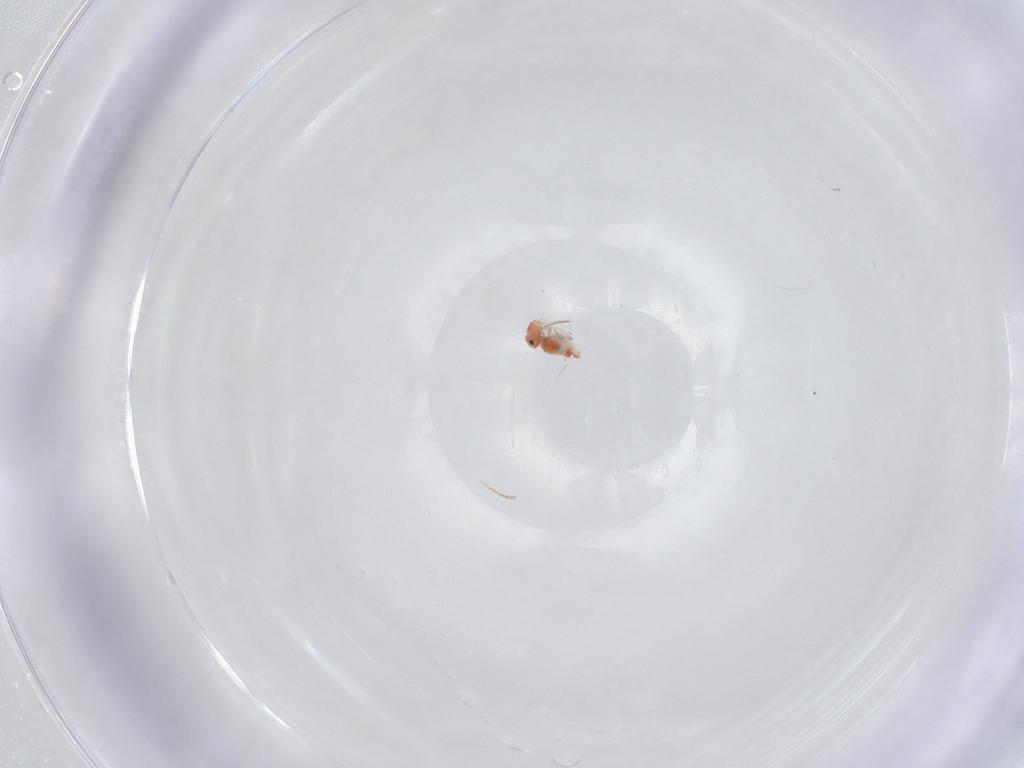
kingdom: Animalia
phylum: Arthropoda
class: Collembola
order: Symphypleona
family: Bourletiellidae
